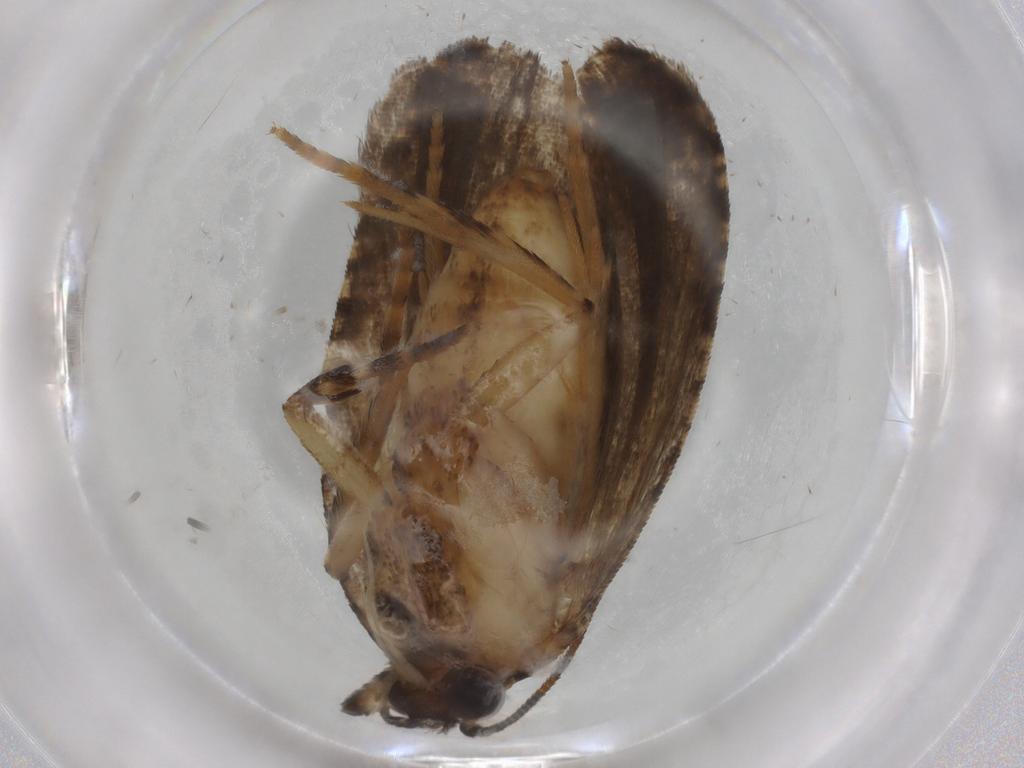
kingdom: Animalia
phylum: Arthropoda
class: Insecta
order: Lepidoptera
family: Tortricidae
